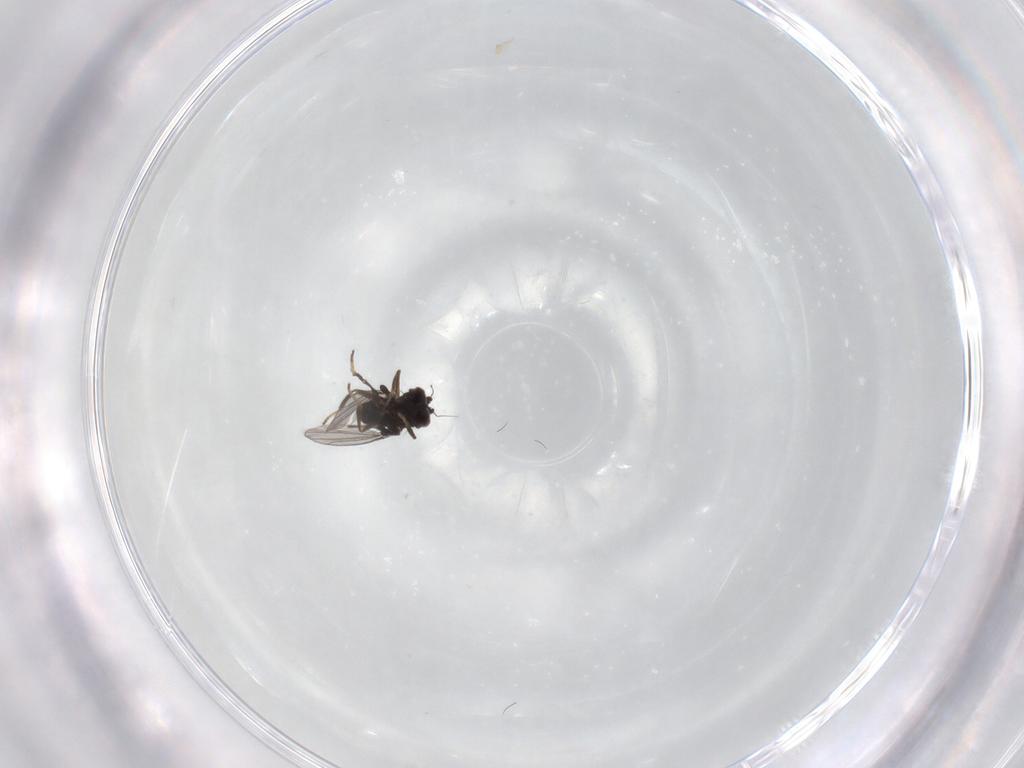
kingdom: Animalia
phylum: Arthropoda
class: Insecta
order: Diptera
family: Dolichopodidae
